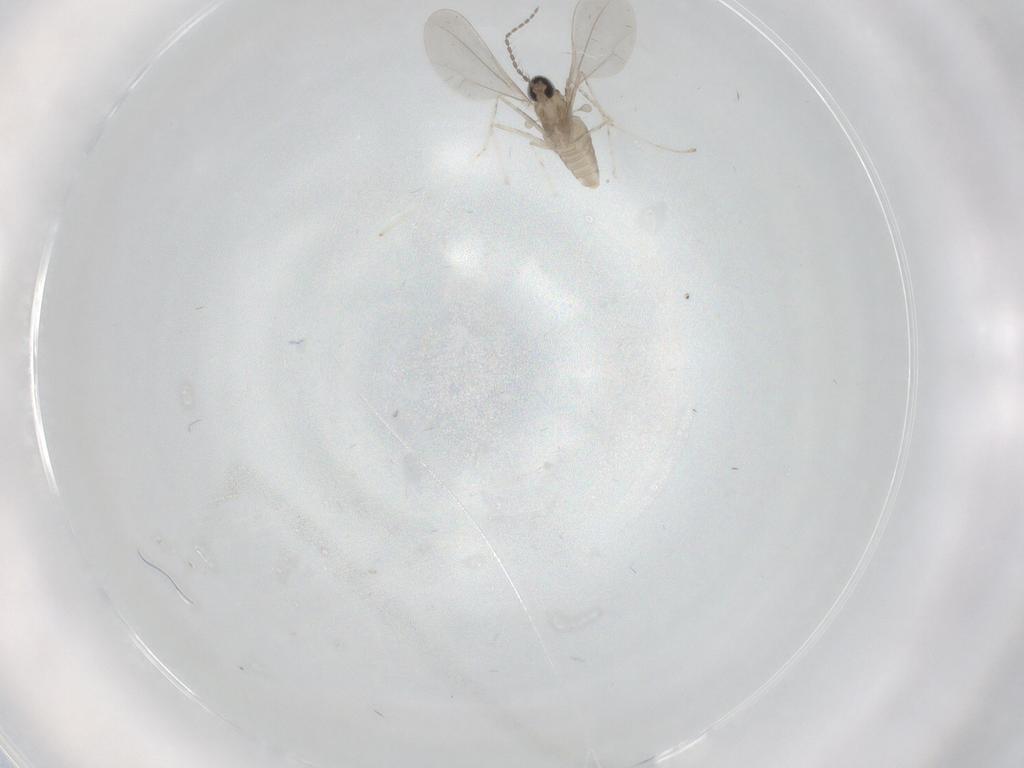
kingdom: Animalia
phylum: Arthropoda
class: Insecta
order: Diptera
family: Cecidomyiidae
